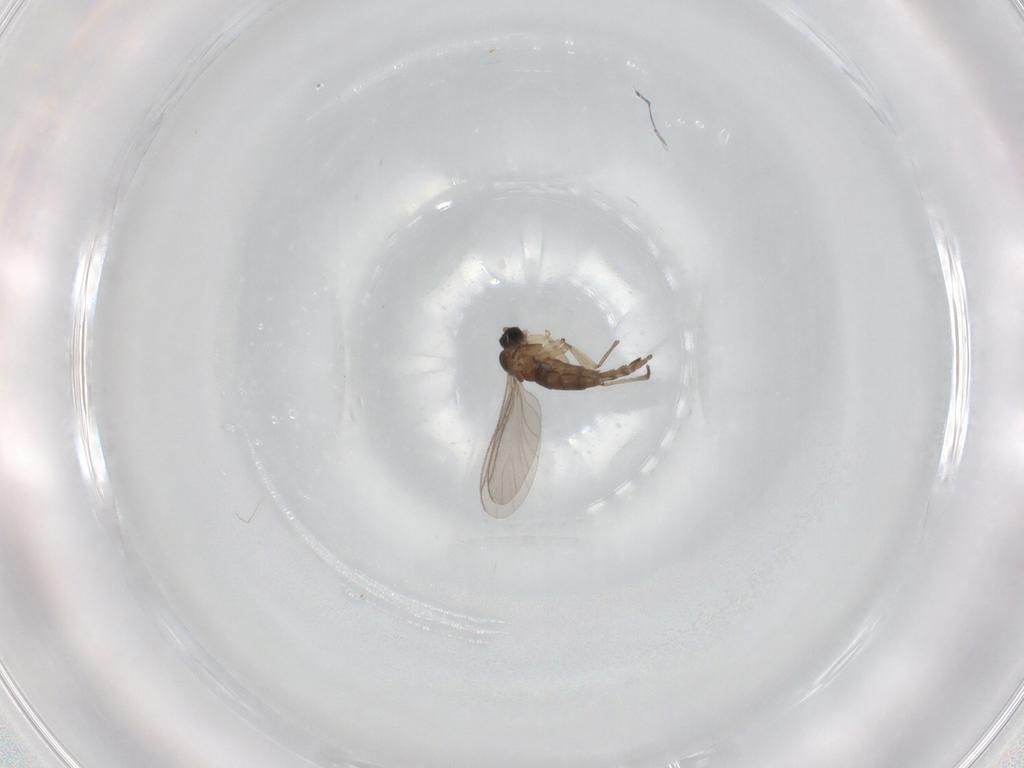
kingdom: Animalia
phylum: Arthropoda
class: Insecta
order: Diptera
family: Sciaridae
